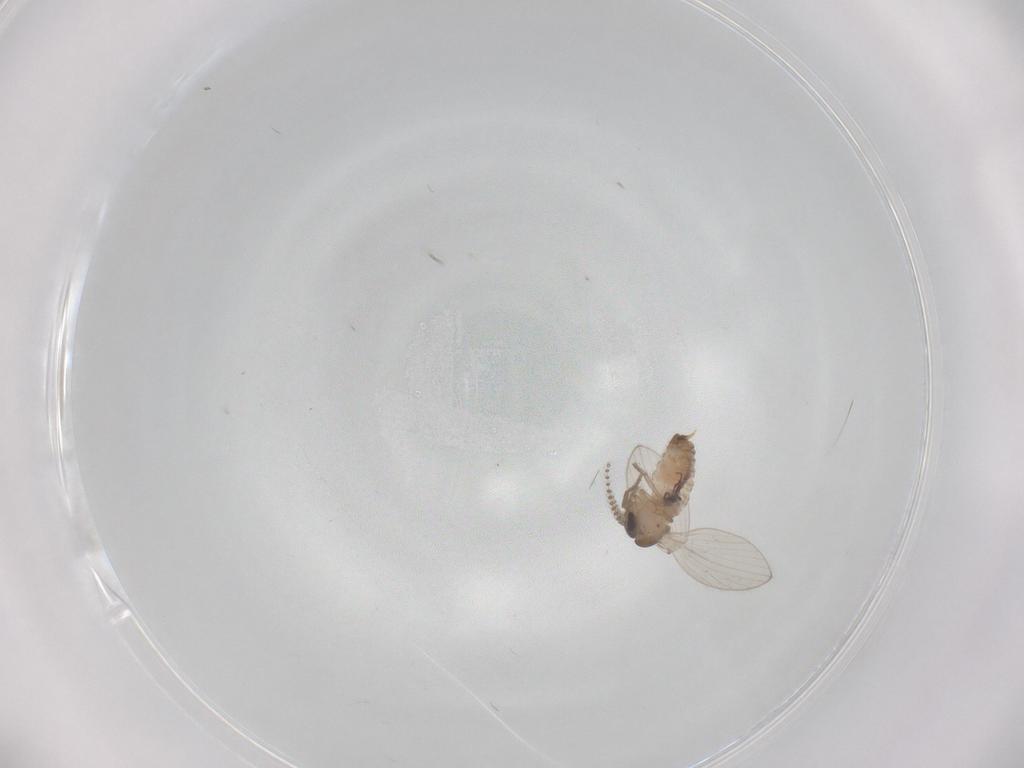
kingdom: Animalia
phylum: Arthropoda
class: Insecta
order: Diptera
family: Psychodidae
